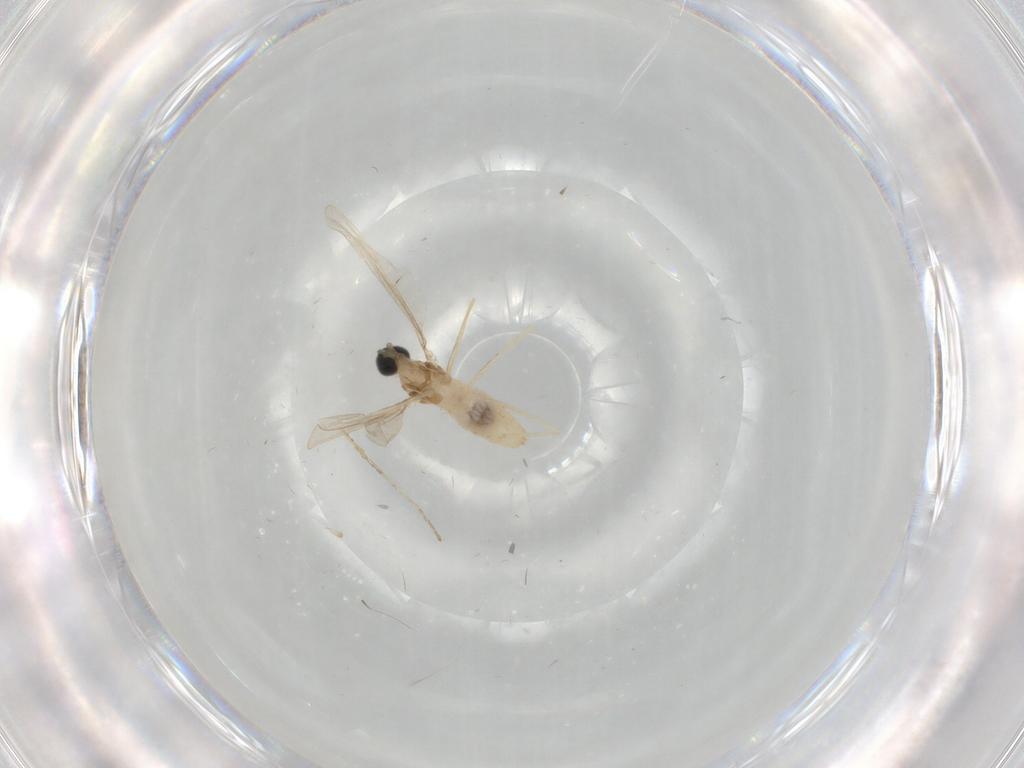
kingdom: Animalia
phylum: Arthropoda
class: Insecta
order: Diptera
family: Cecidomyiidae
